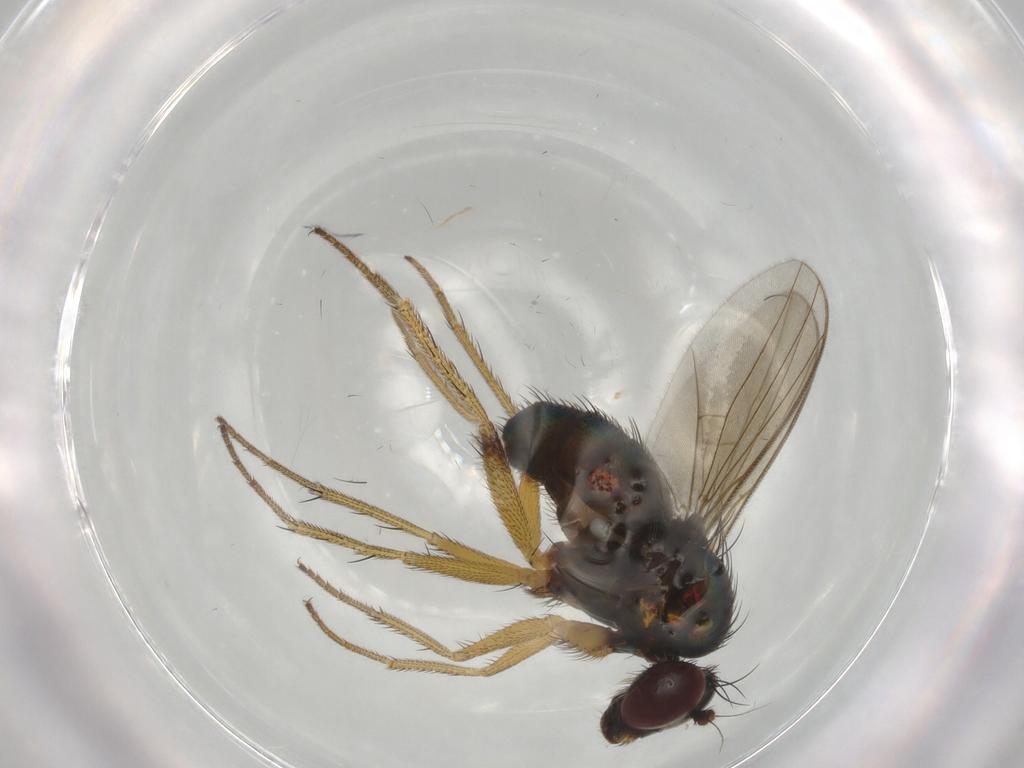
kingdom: Animalia
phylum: Arthropoda
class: Insecta
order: Diptera
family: Dolichopodidae
